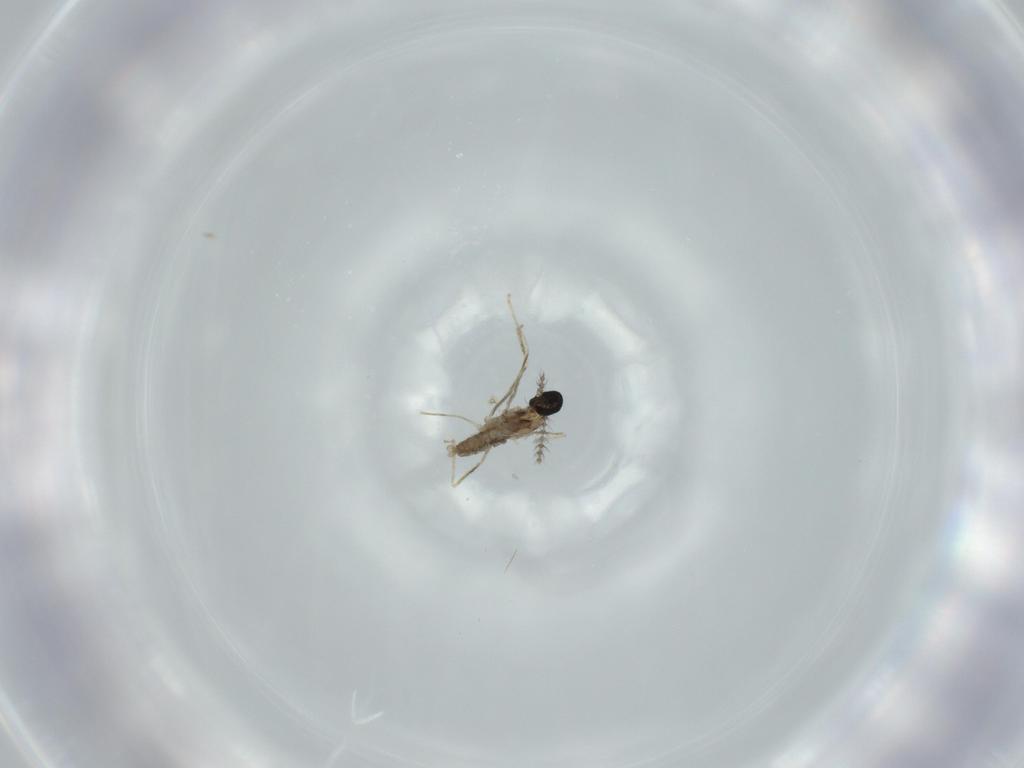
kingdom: Animalia
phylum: Arthropoda
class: Insecta
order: Diptera
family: Cecidomyiidae
